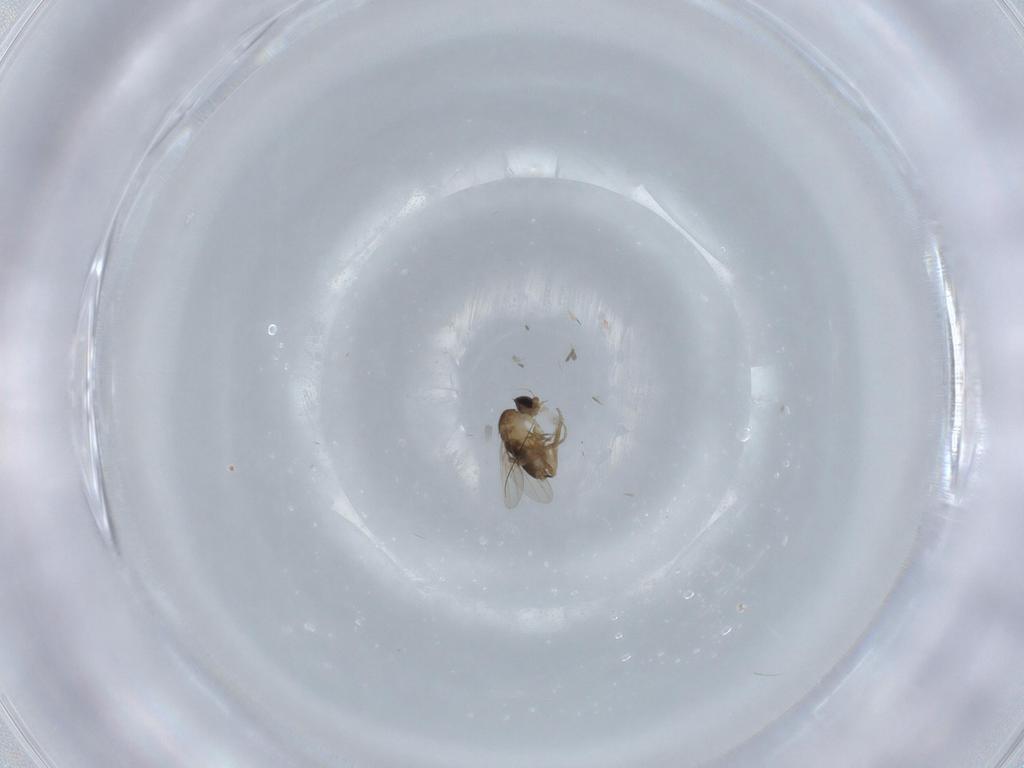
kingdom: Animalia
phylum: Arthropoda
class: Insecta
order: Diptera
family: Phoridae
